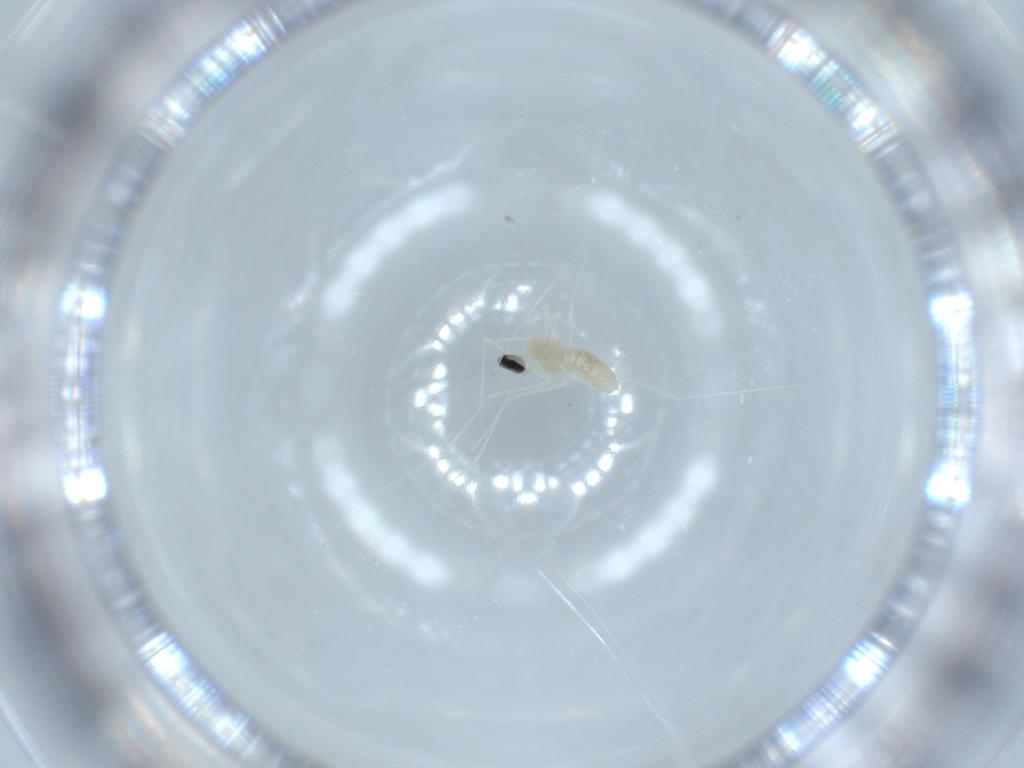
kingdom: Animalia
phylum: Arthropoda
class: Insecta
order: Diptera
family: Cecidomyiidae
